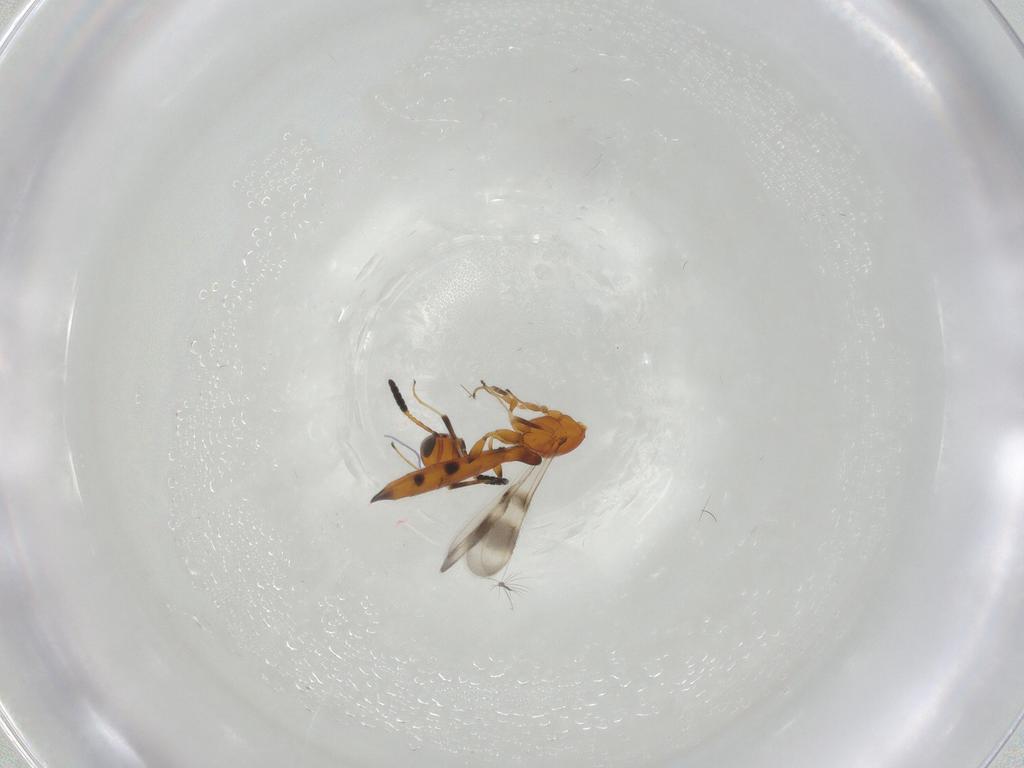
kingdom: Animalia
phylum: Arthropoda
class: Insecta
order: Hymenoptera
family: Scelionidae
